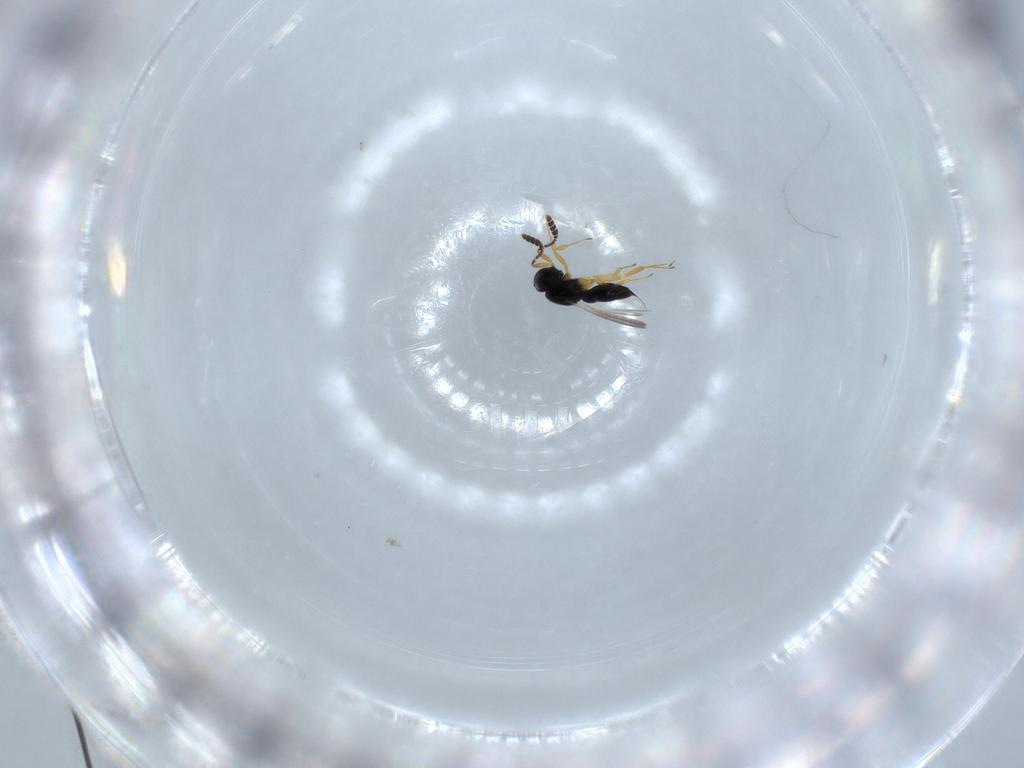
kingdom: Animalia
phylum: Arthropoda
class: Insecta
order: Hymenoptera
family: Scelionidae
